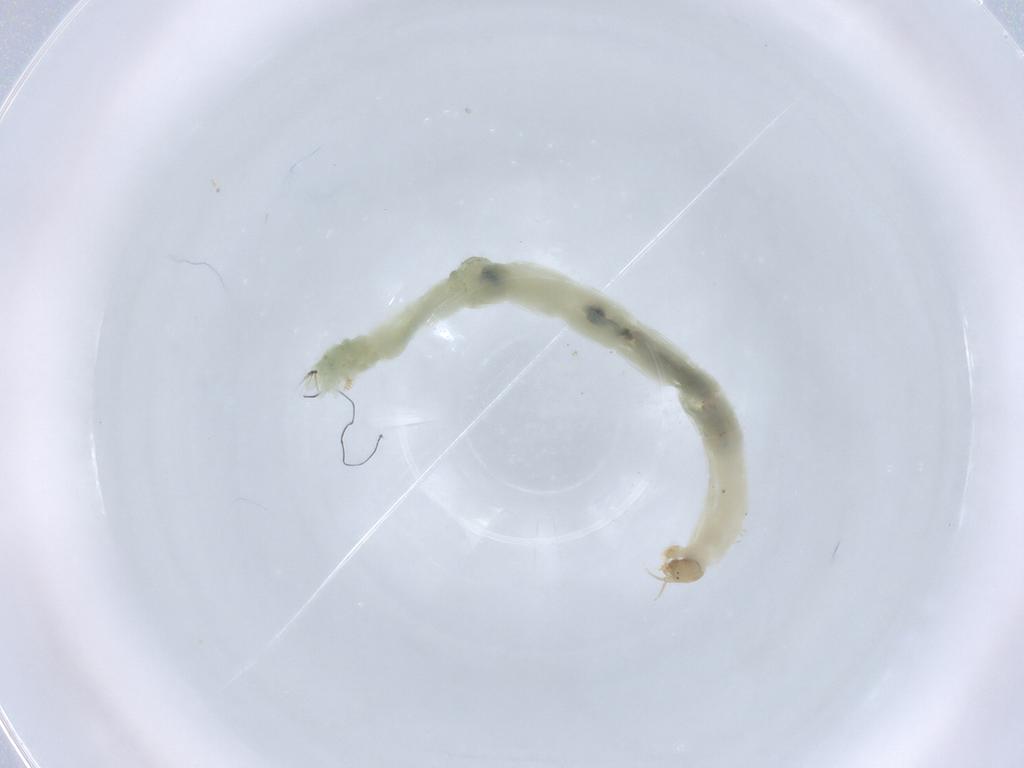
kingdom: Animalia
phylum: Arthropoda
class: Insecta
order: Diptera
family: Chironomidae
